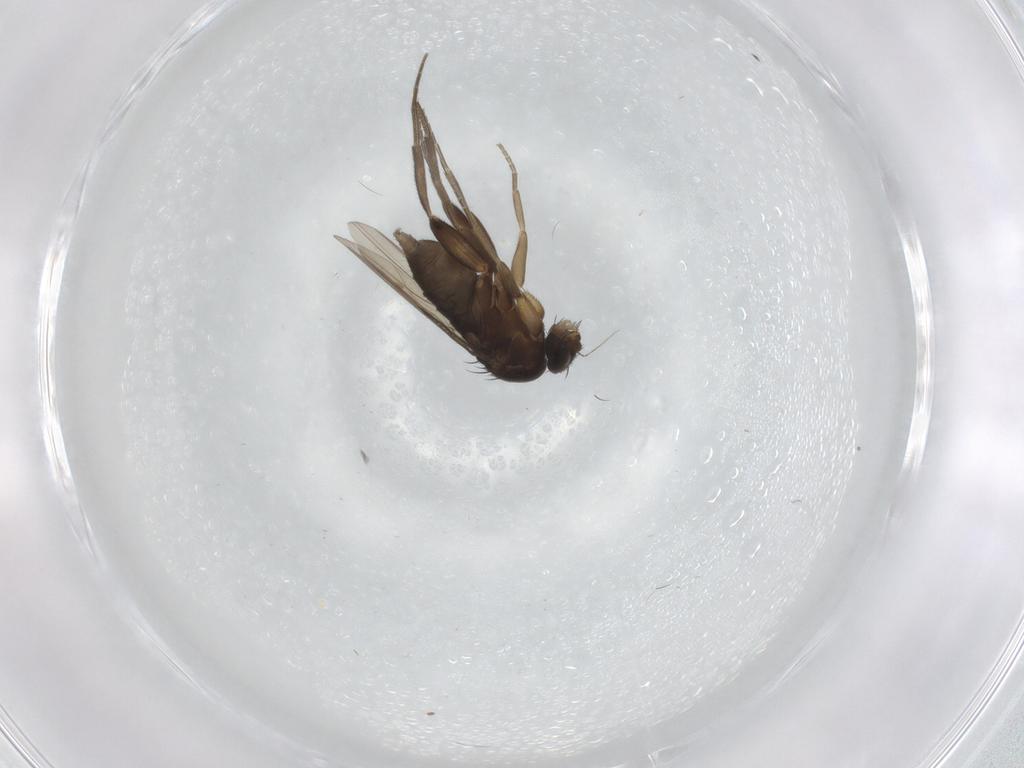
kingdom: Animalia
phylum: Arthropoda
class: Insecta
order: Diptera
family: Phoridae
